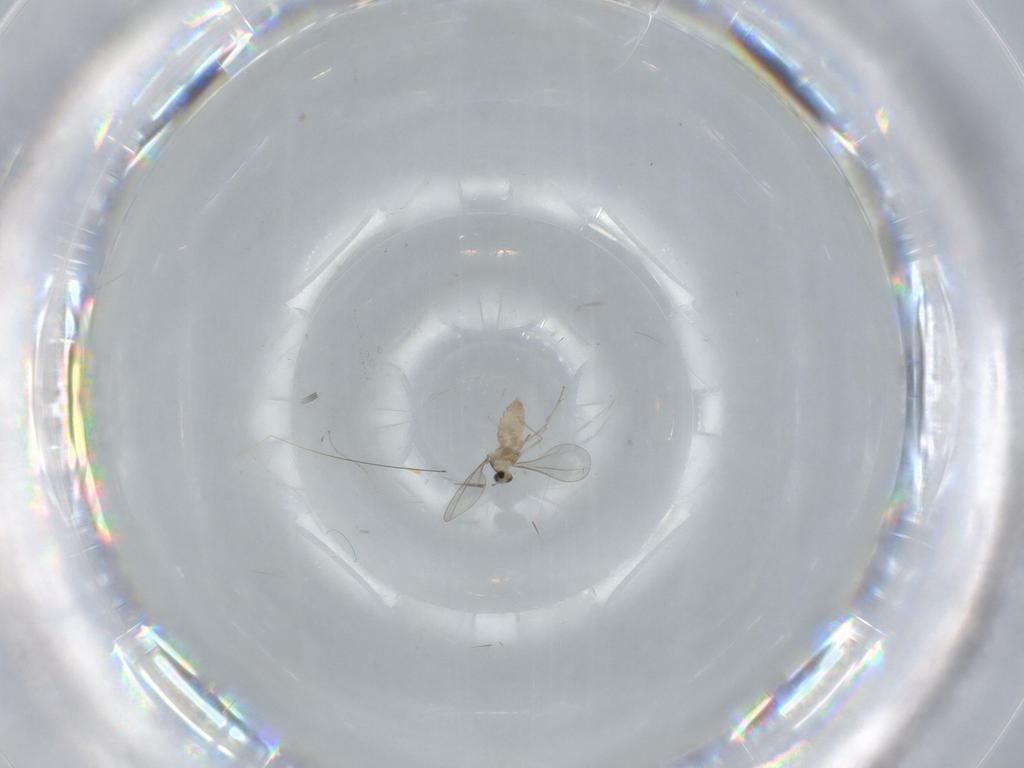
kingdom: Animalia
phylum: Arthropoda
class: Insecta
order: Diptera
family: Cecidomyiidae
